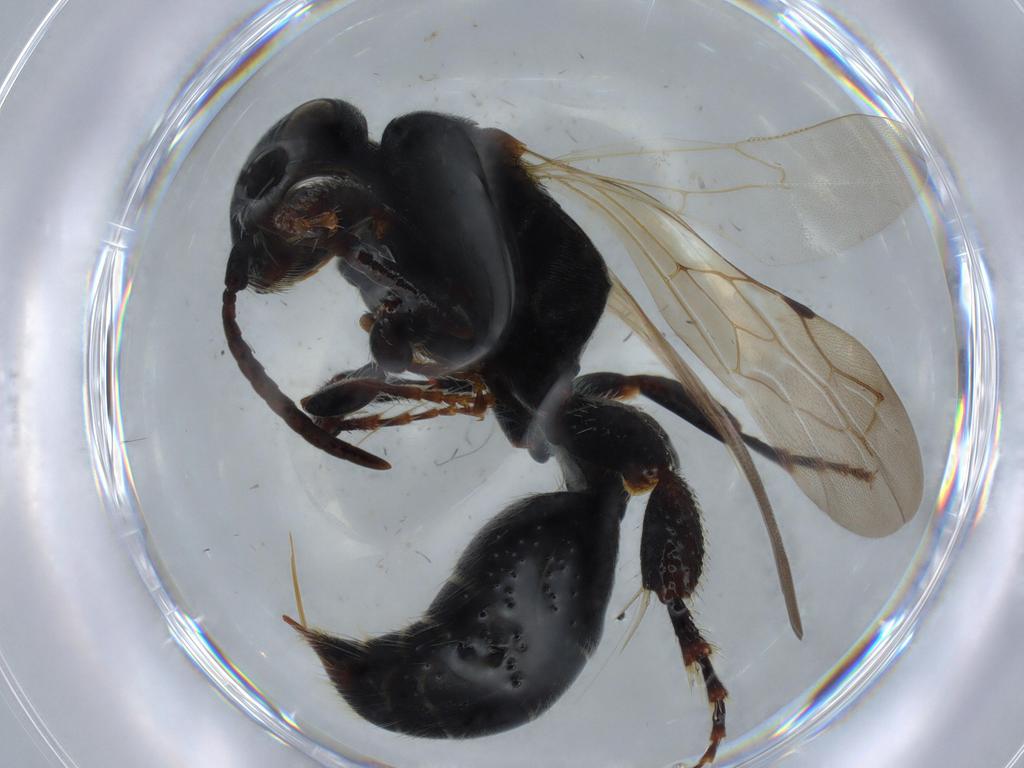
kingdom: Animalia
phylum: Arthropoda
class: Insecta
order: Hymenoptera
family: Tiphiidae
